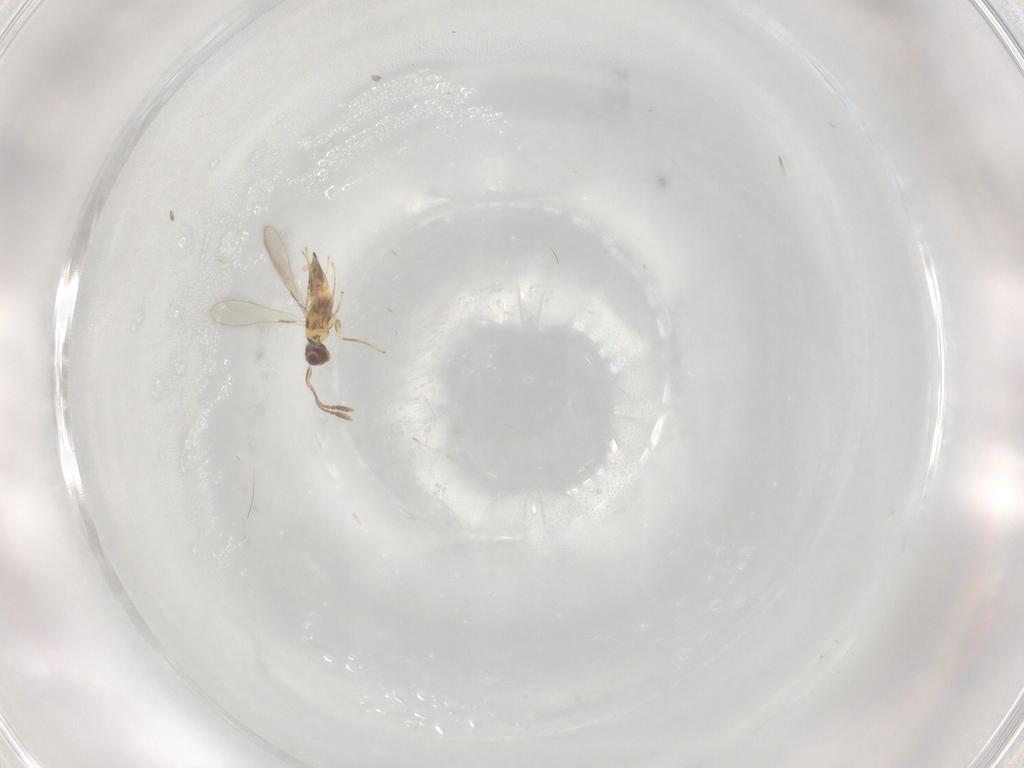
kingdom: Animalia
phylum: Arthropoda
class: Insecta
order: Hymenoptera
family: Mymaridae
